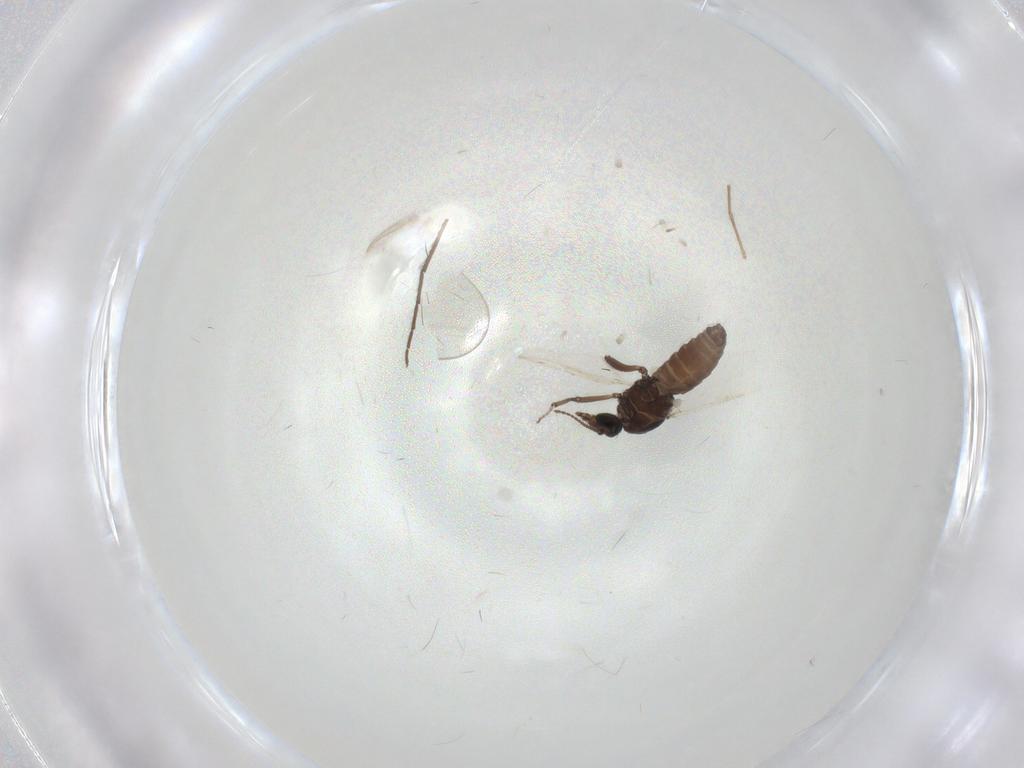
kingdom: Animalia
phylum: Arthropoda
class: Insecta
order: Diptera
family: Ceratopogonidae
